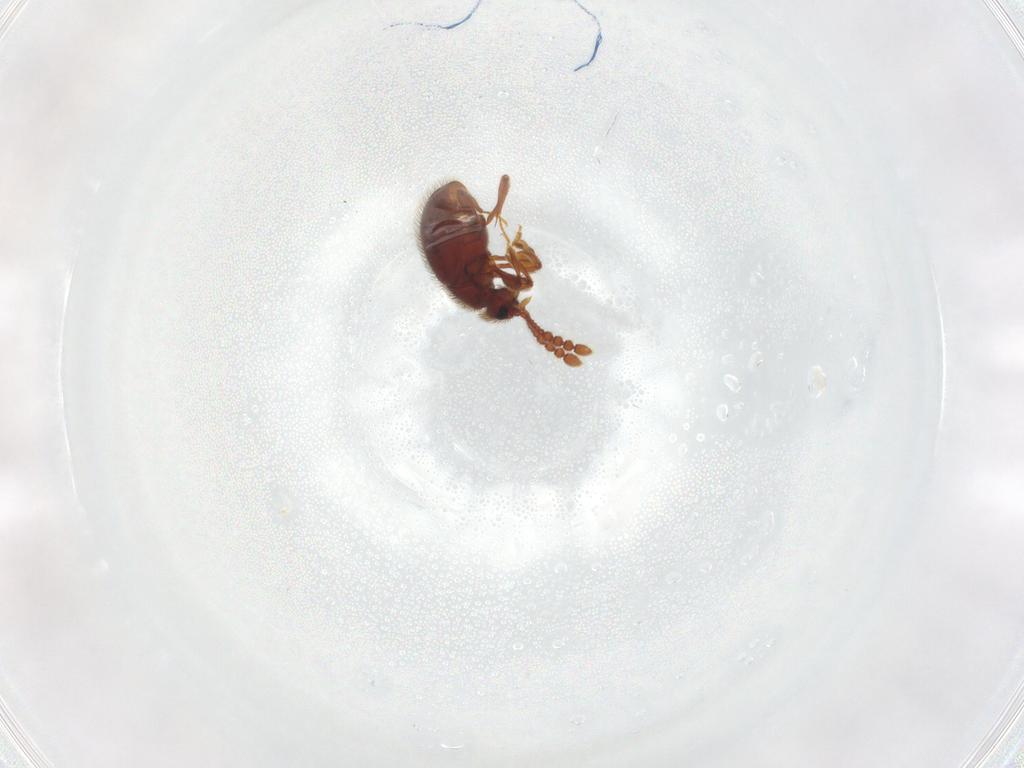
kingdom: Animalia
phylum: Arthropoda
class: Insecta
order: Coleoptera
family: Staphylinidae
